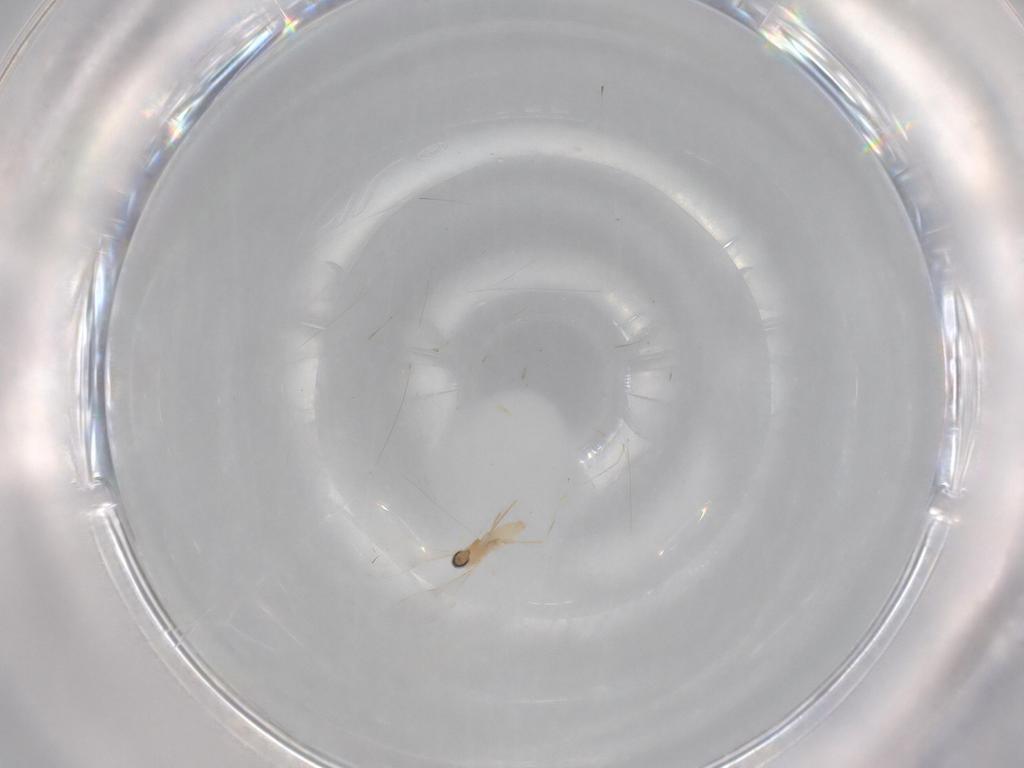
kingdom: Animalia
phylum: Arthropoda
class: Insecta
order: Diptera
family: Cecidomyiidae
